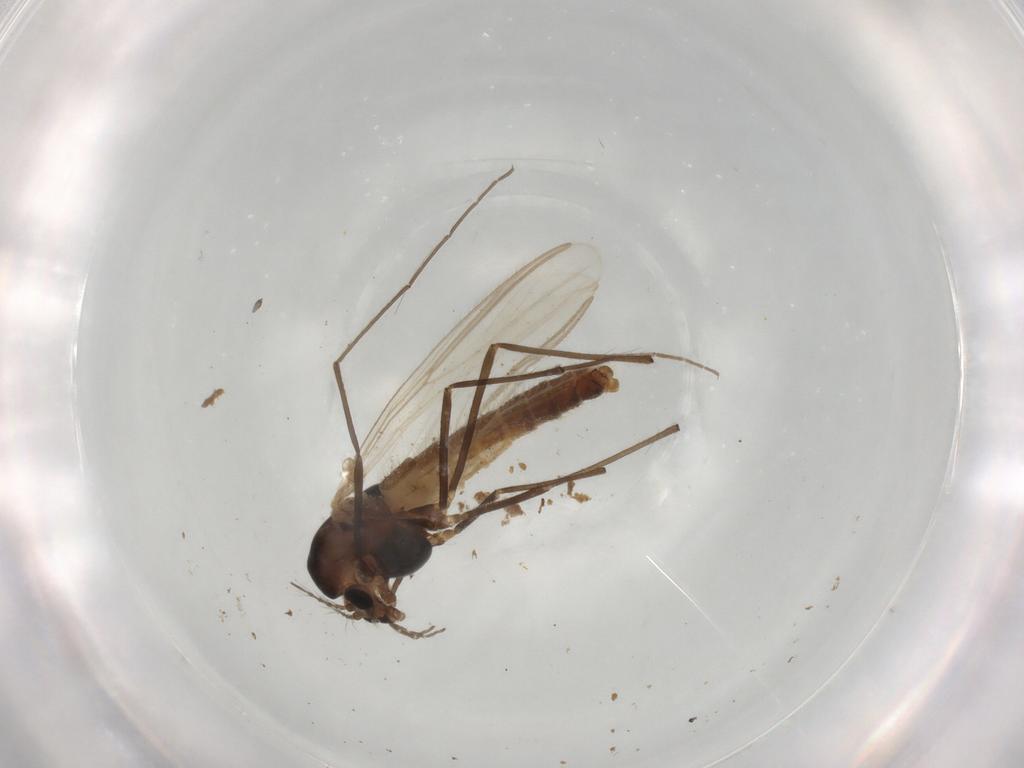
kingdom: Animalia
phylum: Arthropoda
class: Insecta
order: Diptera
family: Chironomidae
